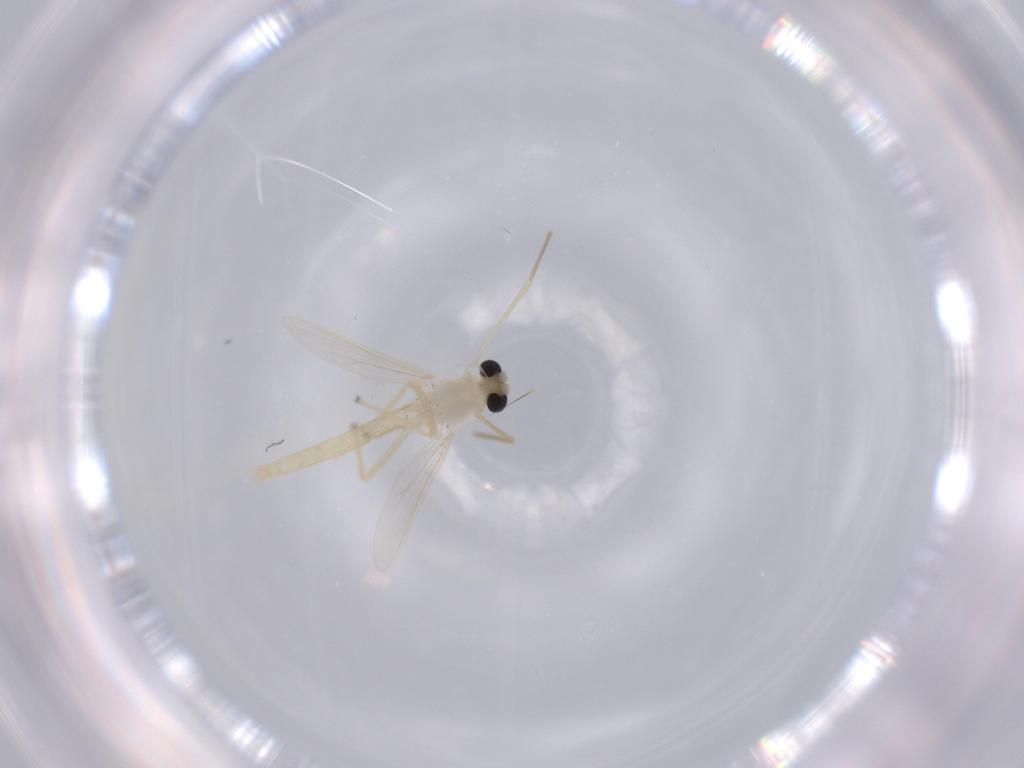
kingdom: Animalia
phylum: Arthropoda
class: Insecta
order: Diptera
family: Chironomidae
